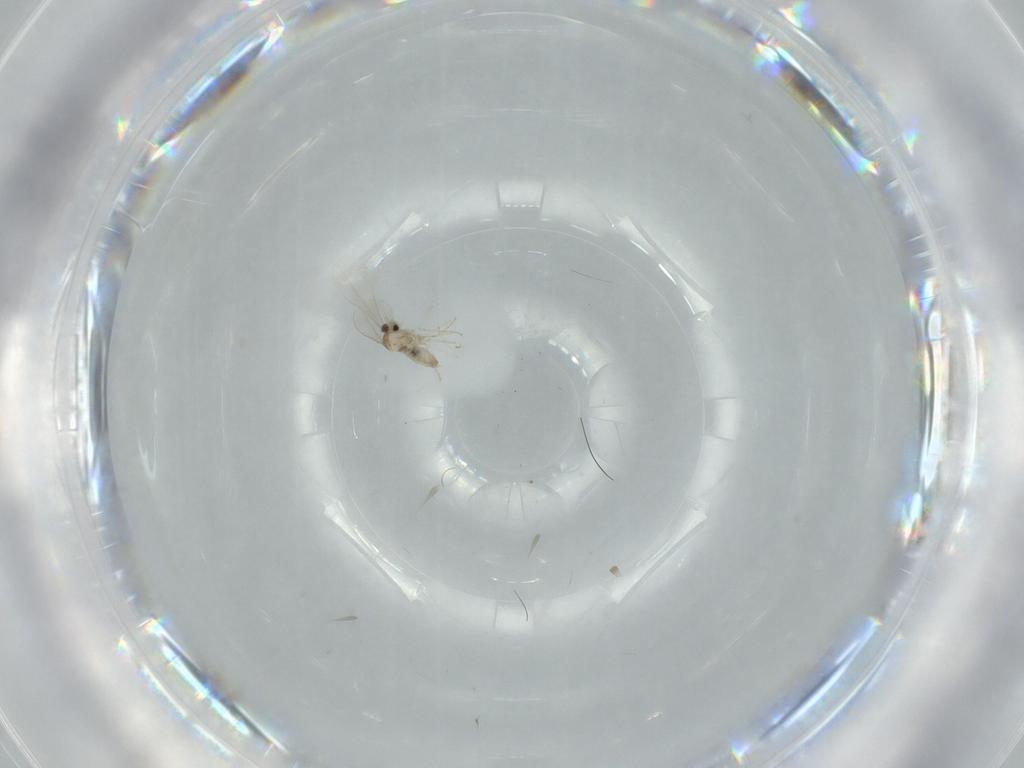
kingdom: Animalia
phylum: Arthropoda
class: Insecta
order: Diptera
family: Cecidomyiidae
